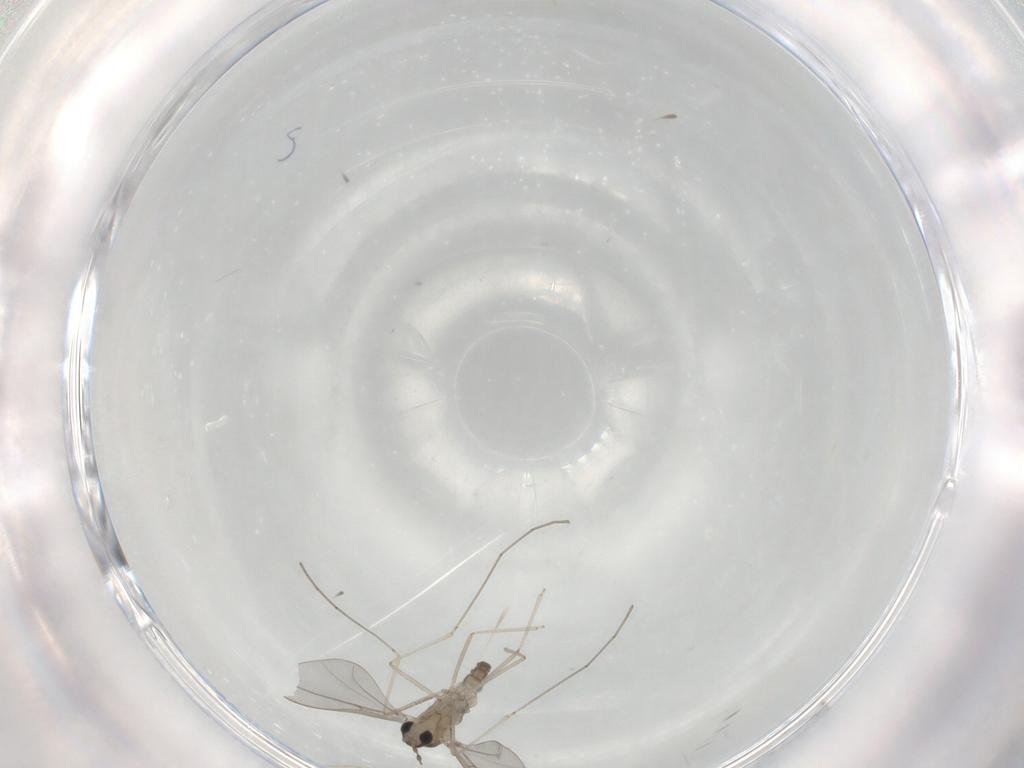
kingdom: Animalia
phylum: Arthropoda
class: Insecta
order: Diptera
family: Cecidomyiidae
